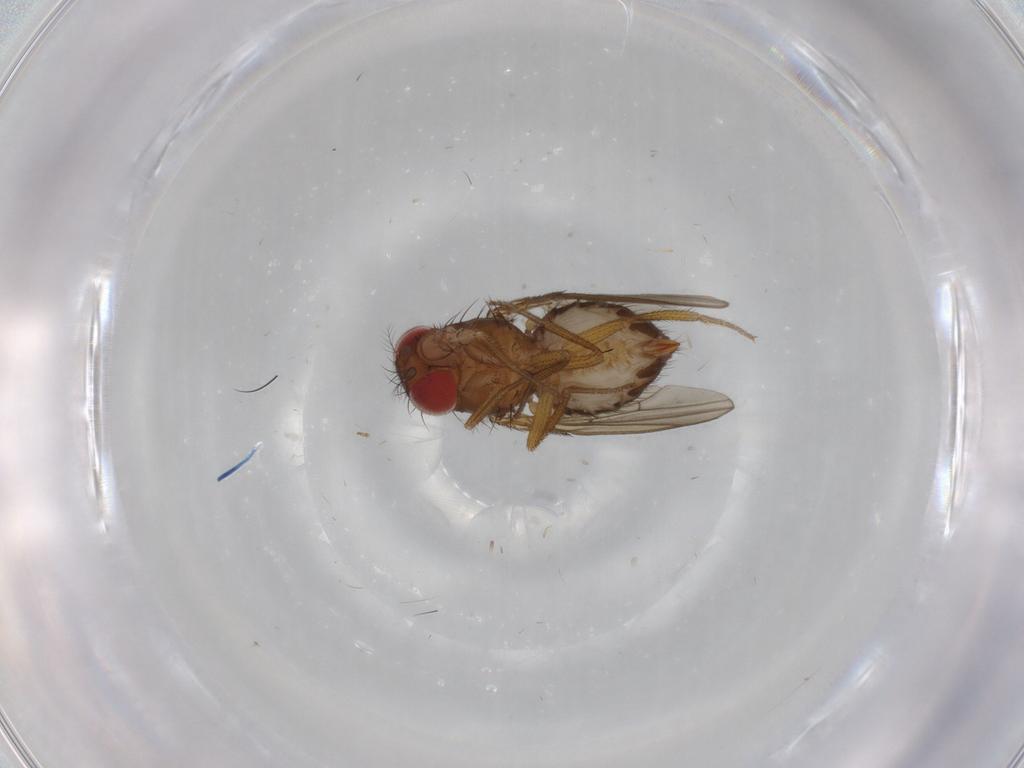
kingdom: Animalia
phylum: Arthropoda
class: Insecta
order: Diptera
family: Drosophilidae
